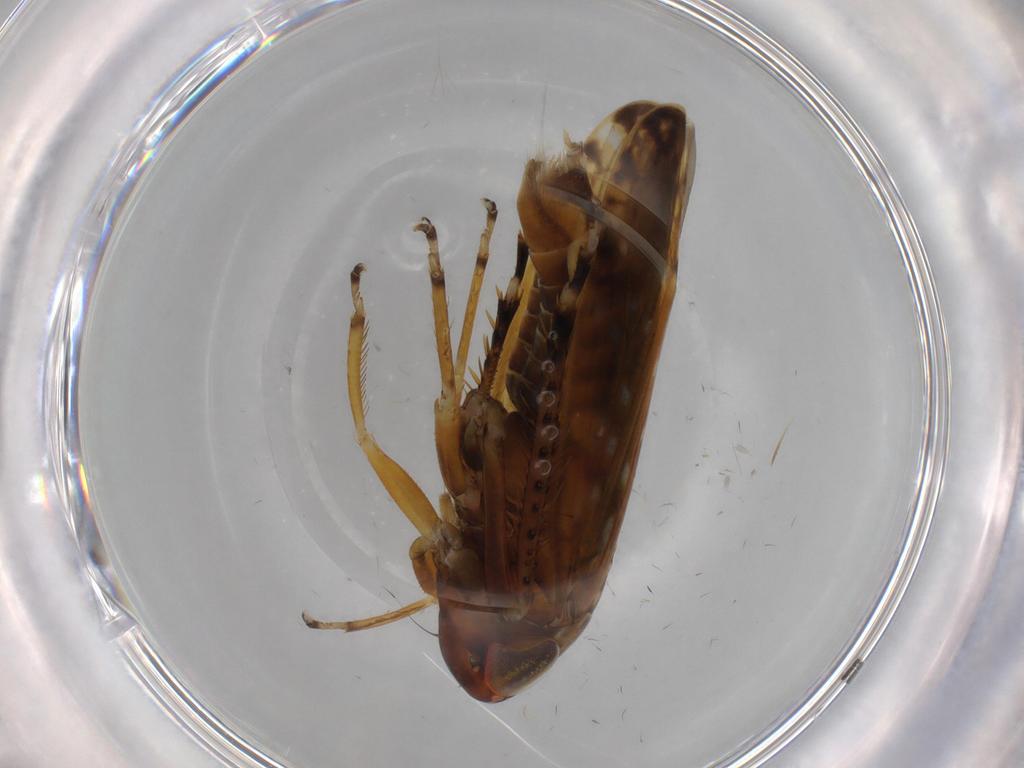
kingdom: Animalia
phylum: Arthropoda
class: Insecta
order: Hemiptera
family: Cicadellidae
